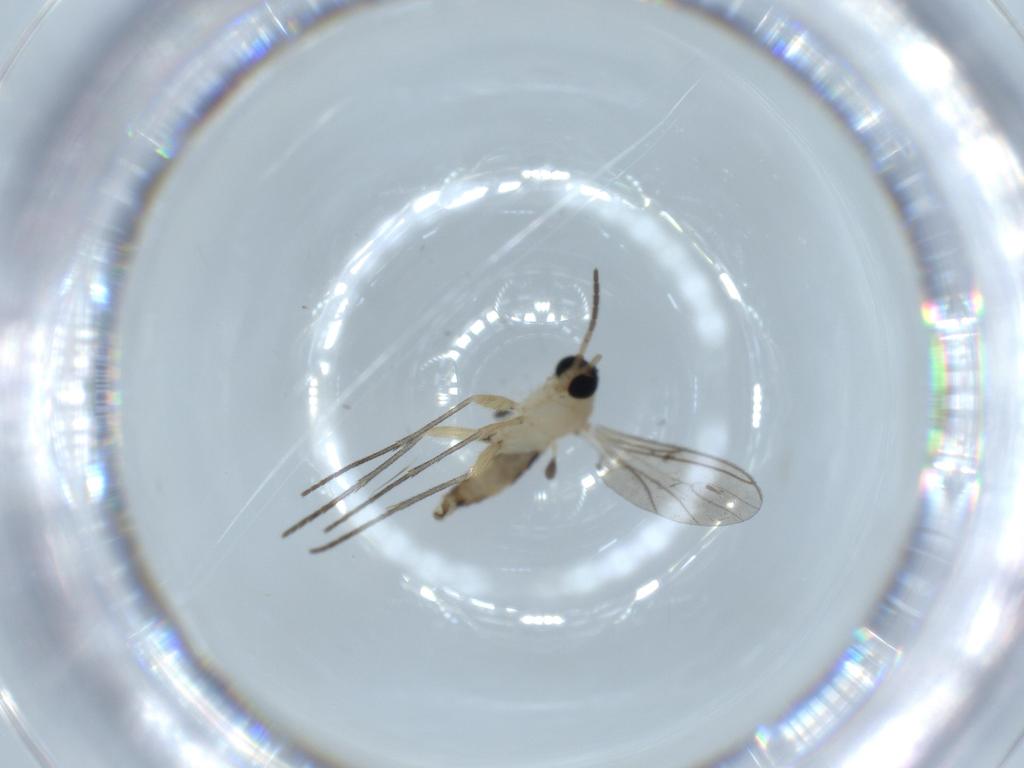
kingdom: Animalia
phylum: Arthropoda
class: Insecta
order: Diptera
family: Sciaridae
